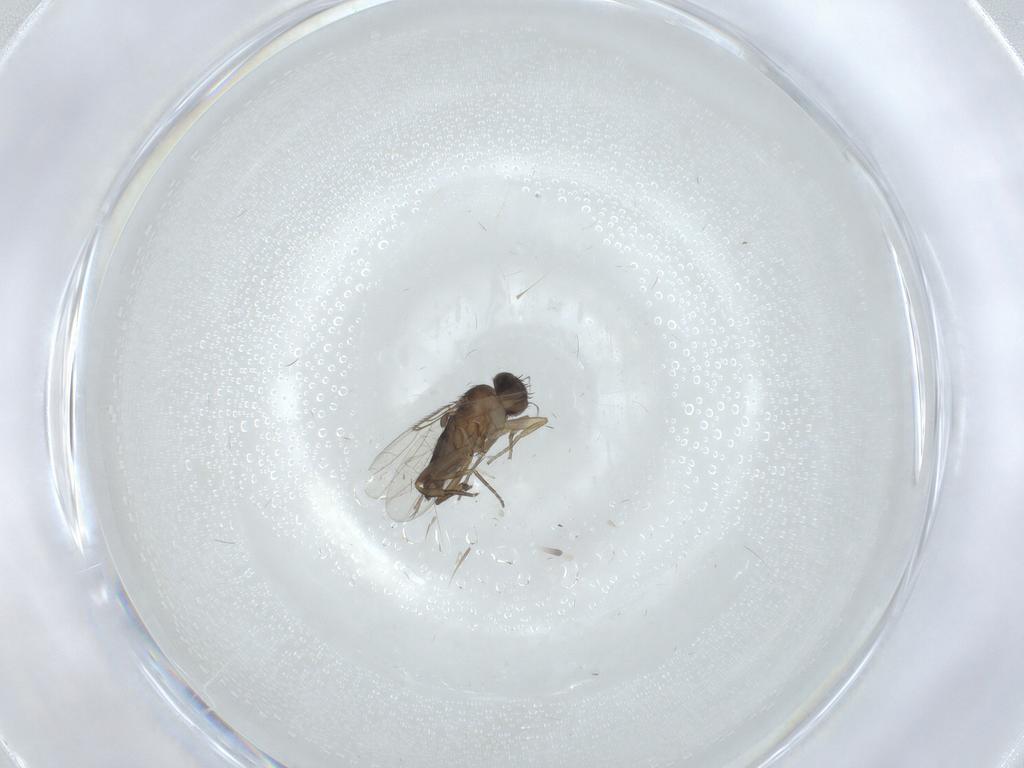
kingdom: Animalia
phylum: Arthropoda
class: Insecta
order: Diptera
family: Phoridae
